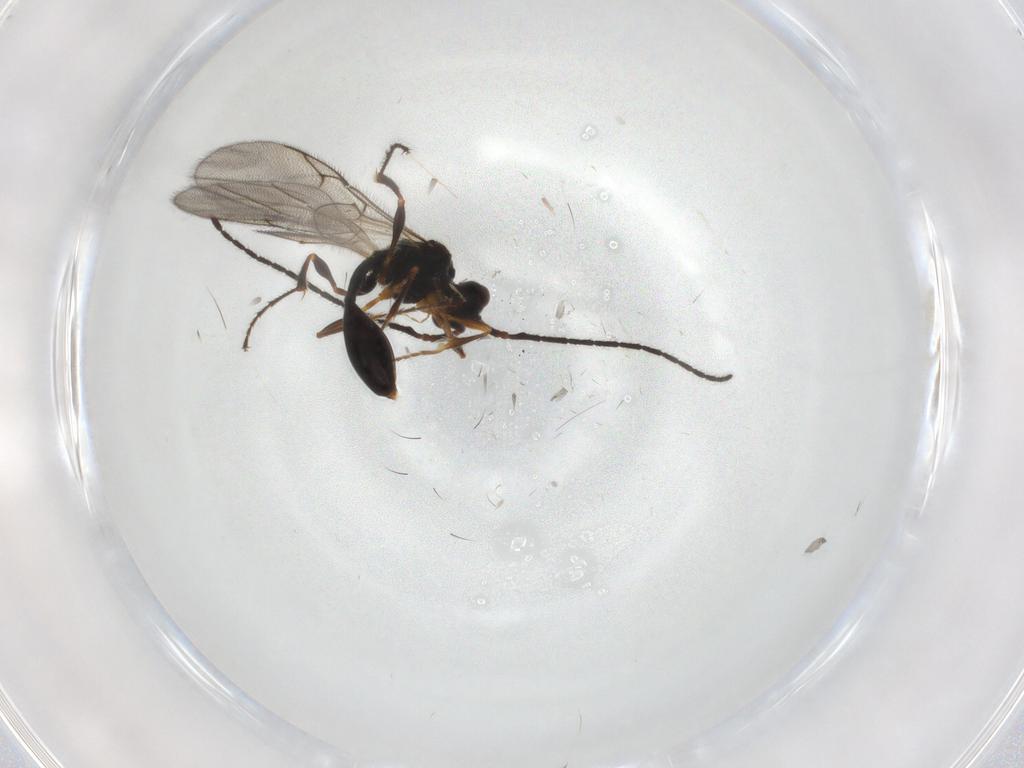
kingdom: Animalia
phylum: Arthropoda
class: Insecta
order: Hymenoptera
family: Diapriidae
